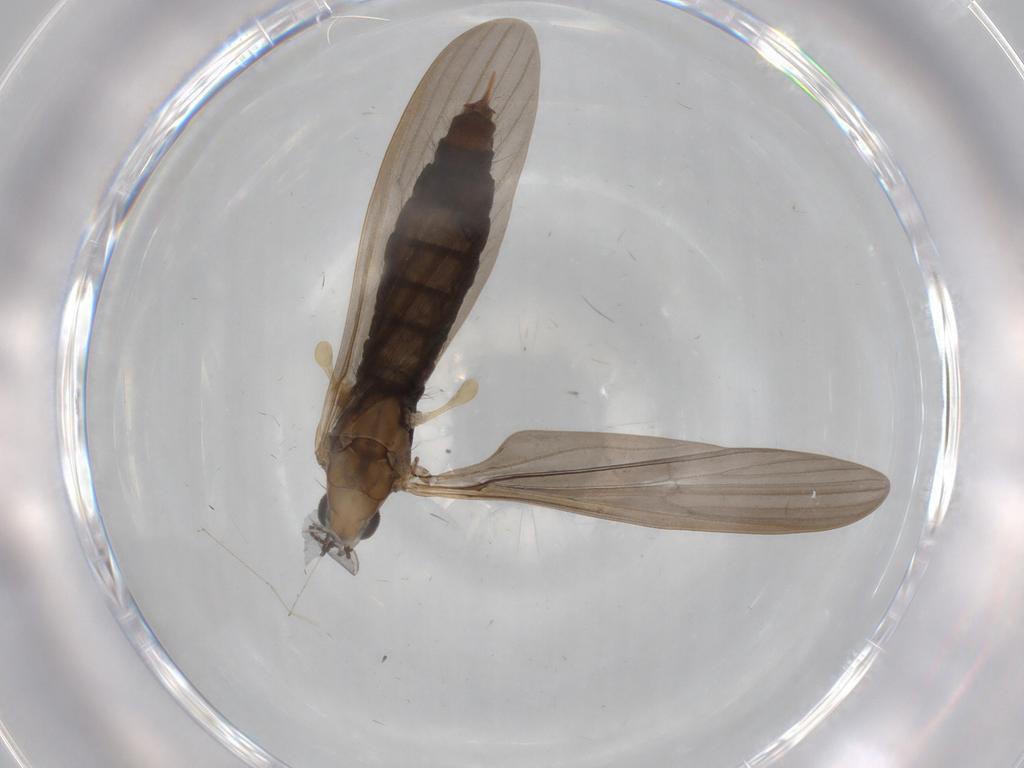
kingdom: Animalia
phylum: Arthropoda
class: Insecta
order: Diptera
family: Limoniidae
